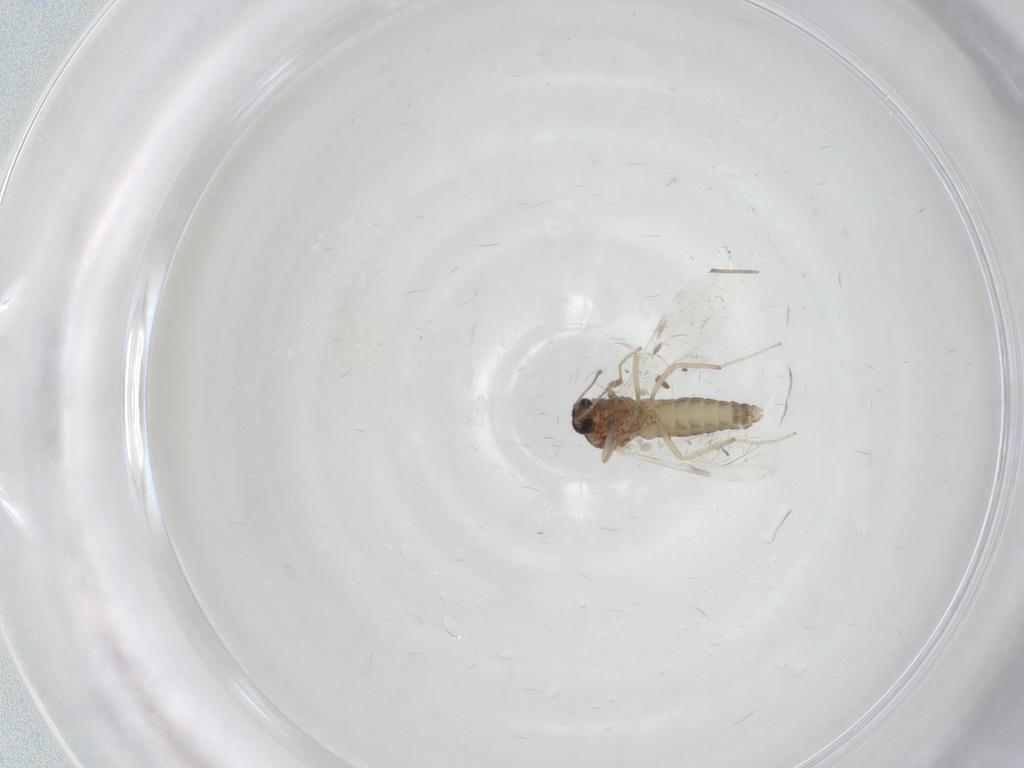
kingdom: Animalia
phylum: Arthropoda
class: Insecta
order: Diptera
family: Ceratopogonidae
